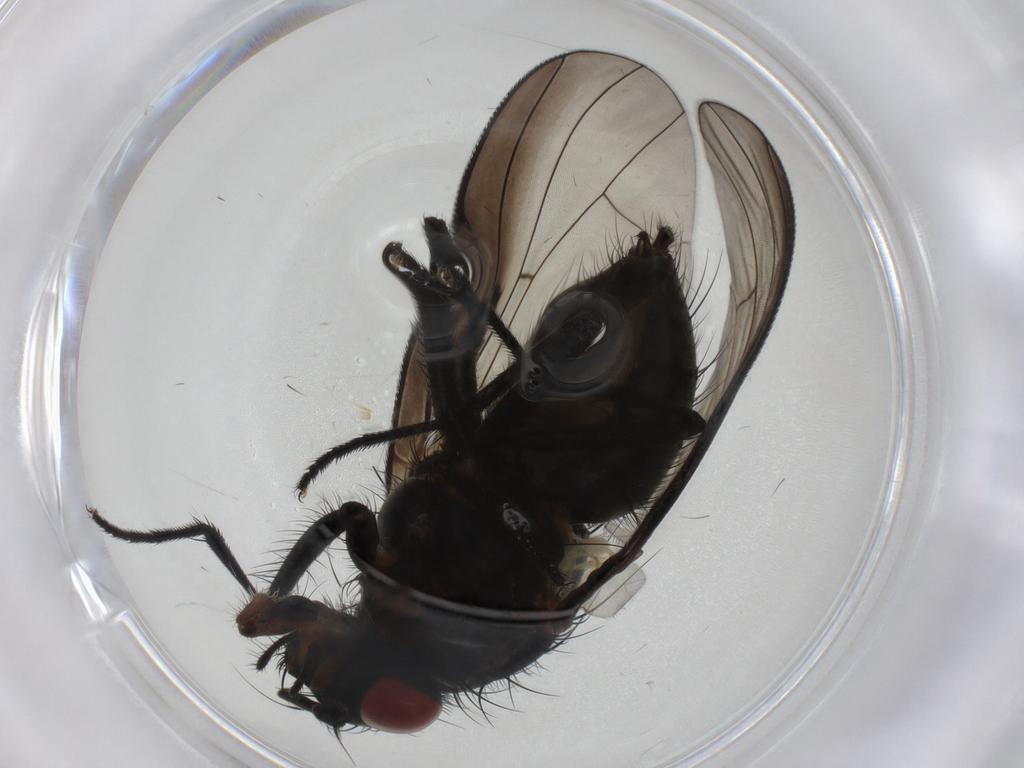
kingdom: Animalia
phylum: Arthropoda
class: Insecta
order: Diptera
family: Muscidae
